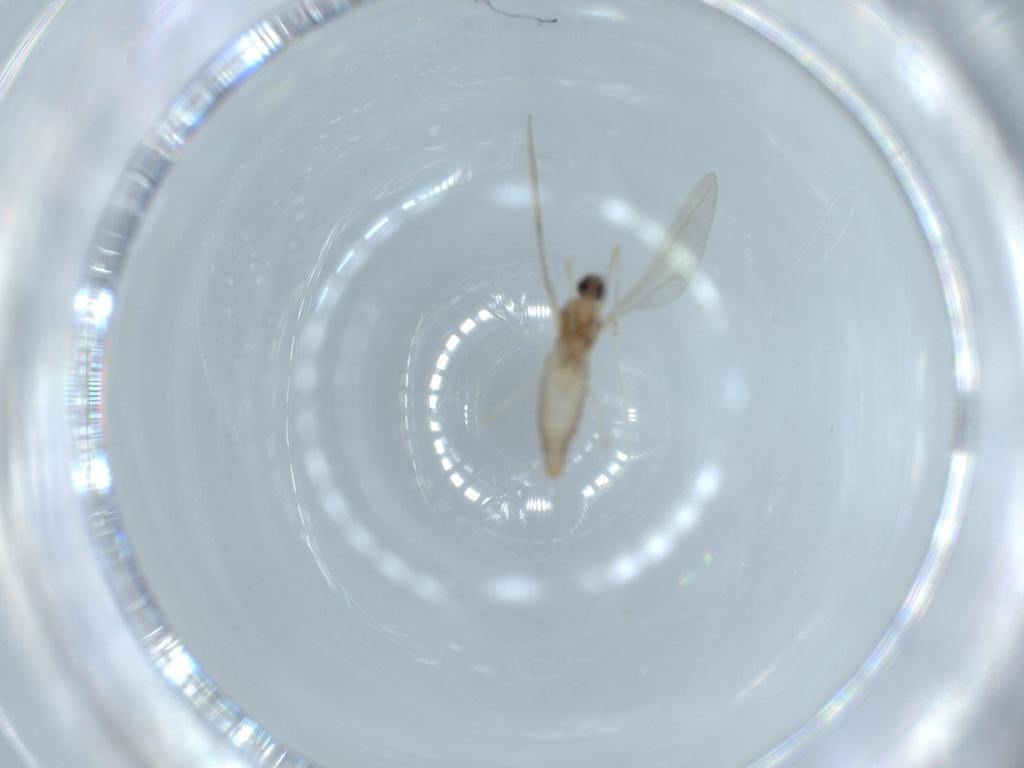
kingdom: Animalia
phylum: Arthropoda
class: Insecta
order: Diptera
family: Cecidomyiidae
